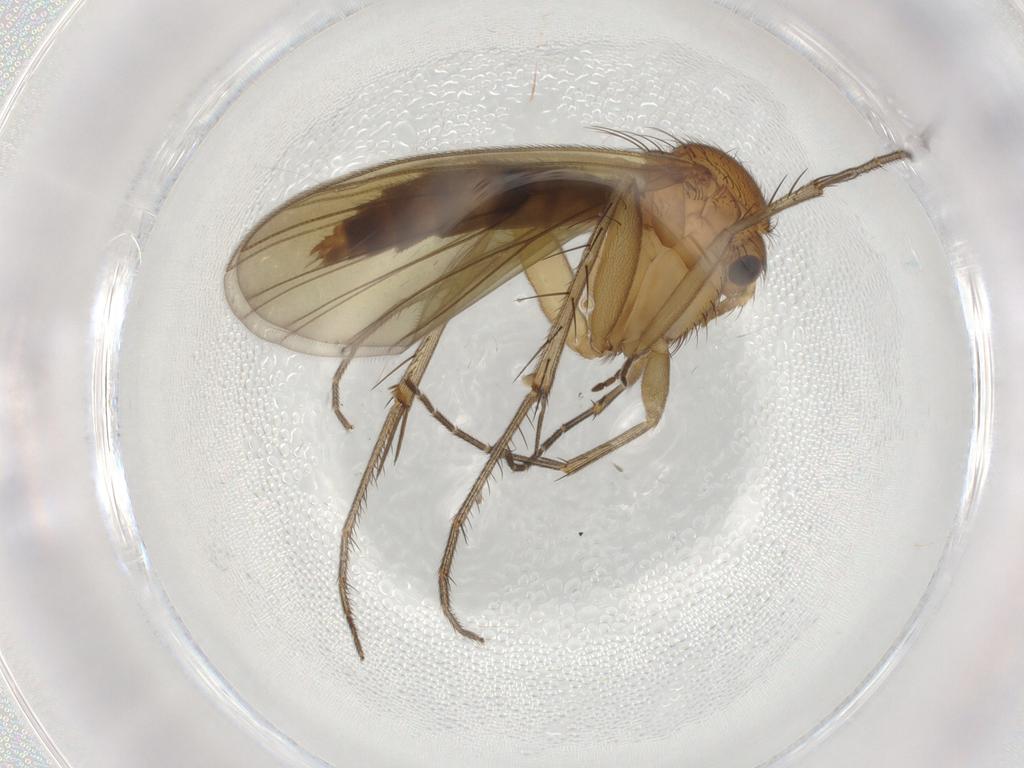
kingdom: Animalia
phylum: Arthropoda
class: Insecta
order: Diptera
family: Mycetophilidae
